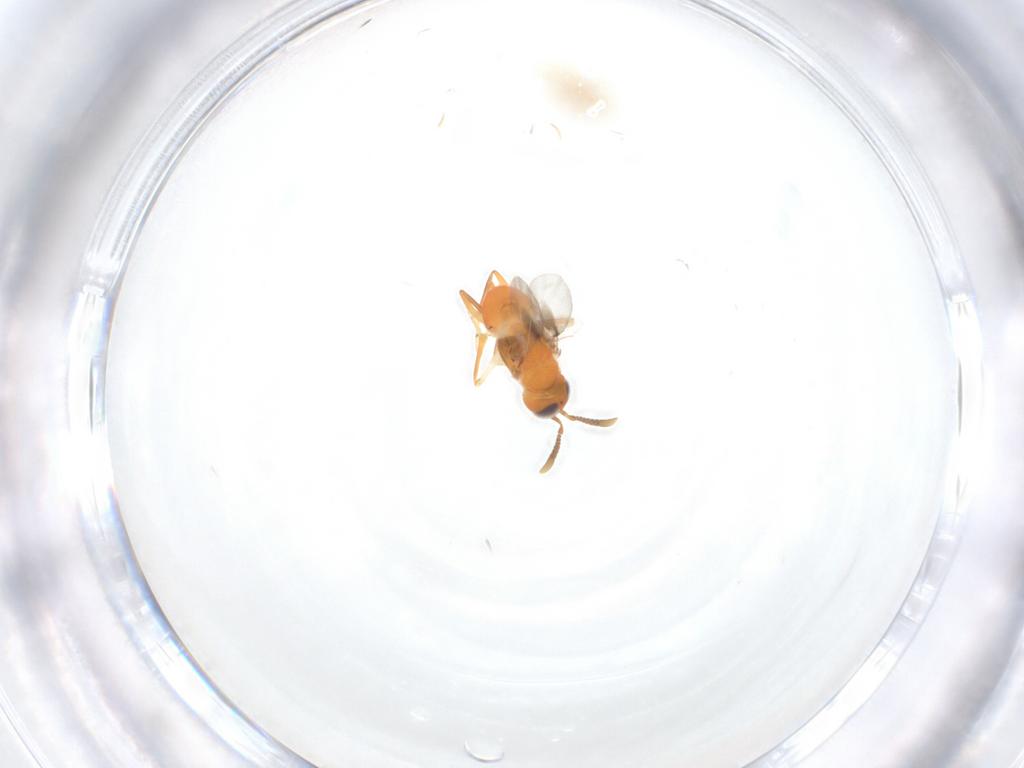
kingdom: Animalia
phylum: Arthropoda
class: Insecta
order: Hymenoptera
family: Encyrtidae
